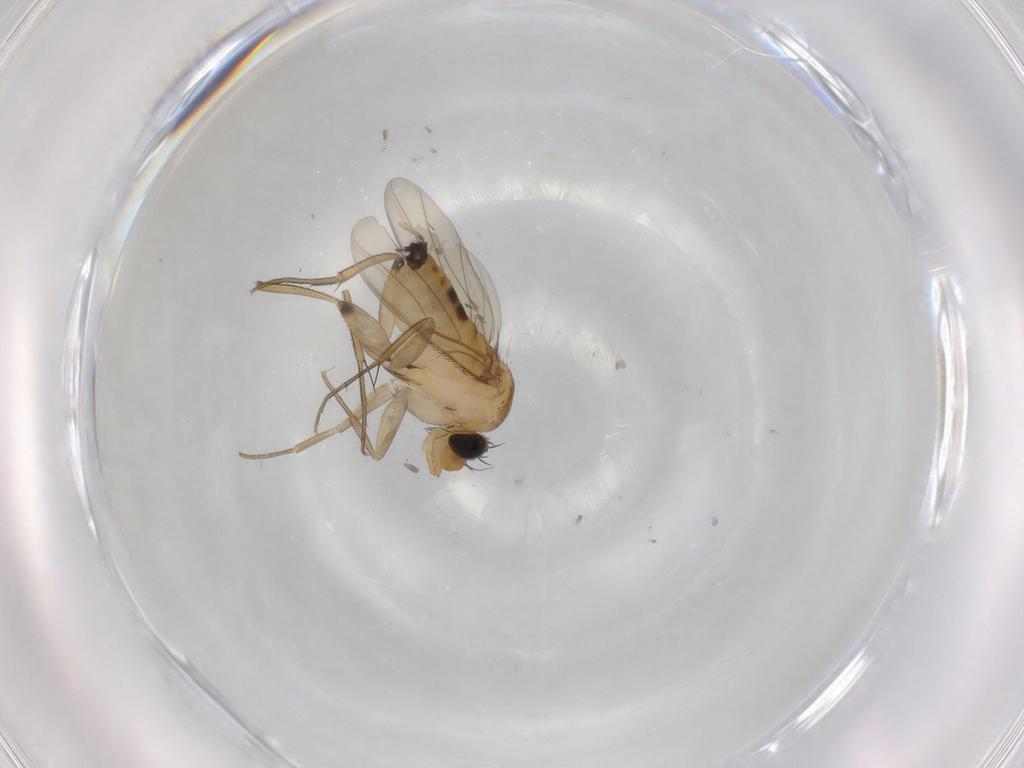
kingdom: Animalia
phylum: Arthropoda
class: Insecta
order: Diptera
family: Phoridae
